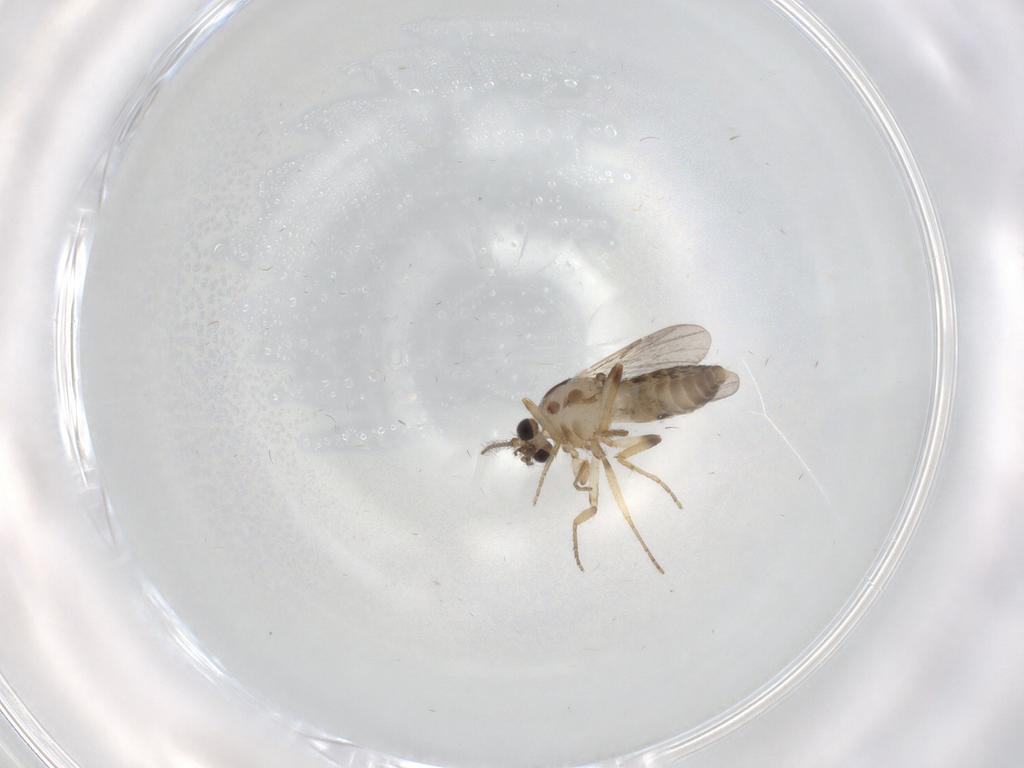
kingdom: Animalia
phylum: Arthropoda
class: Insecta
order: Diptera
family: Ceratopogonidae
